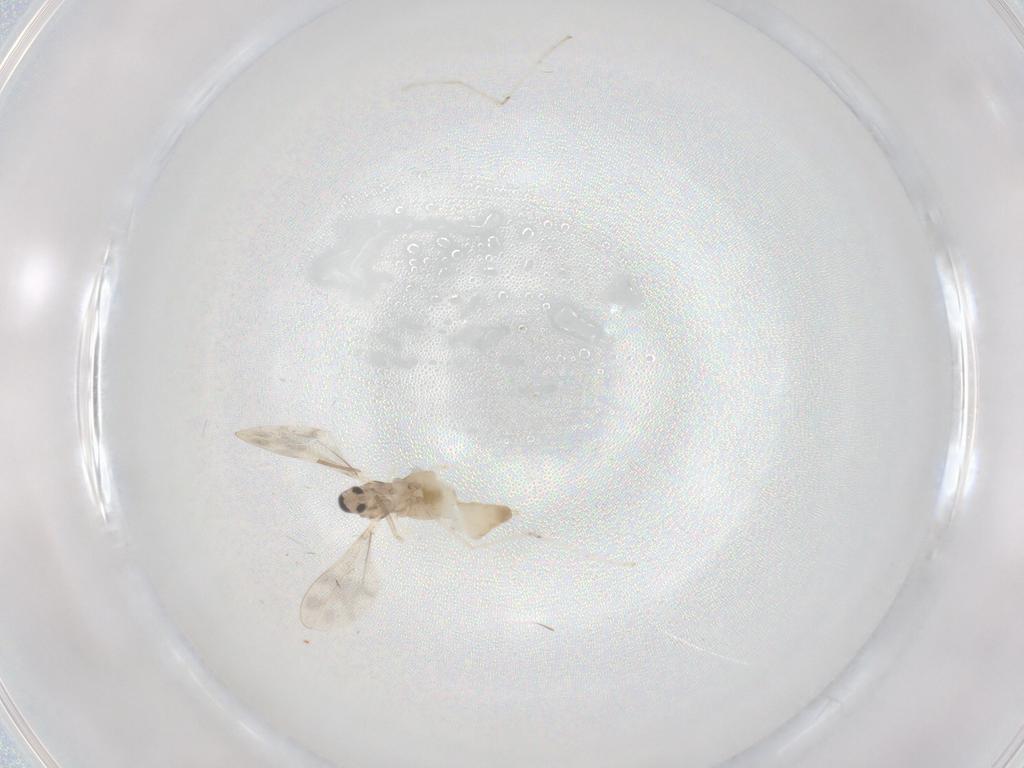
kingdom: Animalia
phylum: Arthropoda
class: Insecta
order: Diptera
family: Cecidomyiidae
